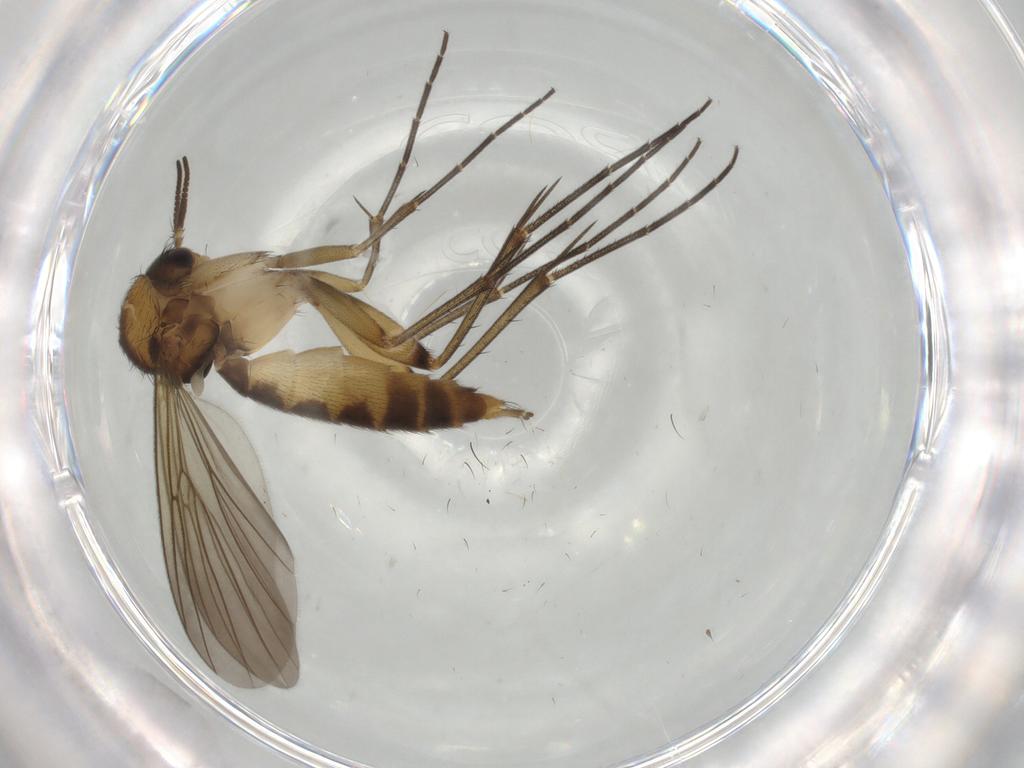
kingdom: Animalia
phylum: Arthropoda
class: Insecta
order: Diptera
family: Mycetophilidae
